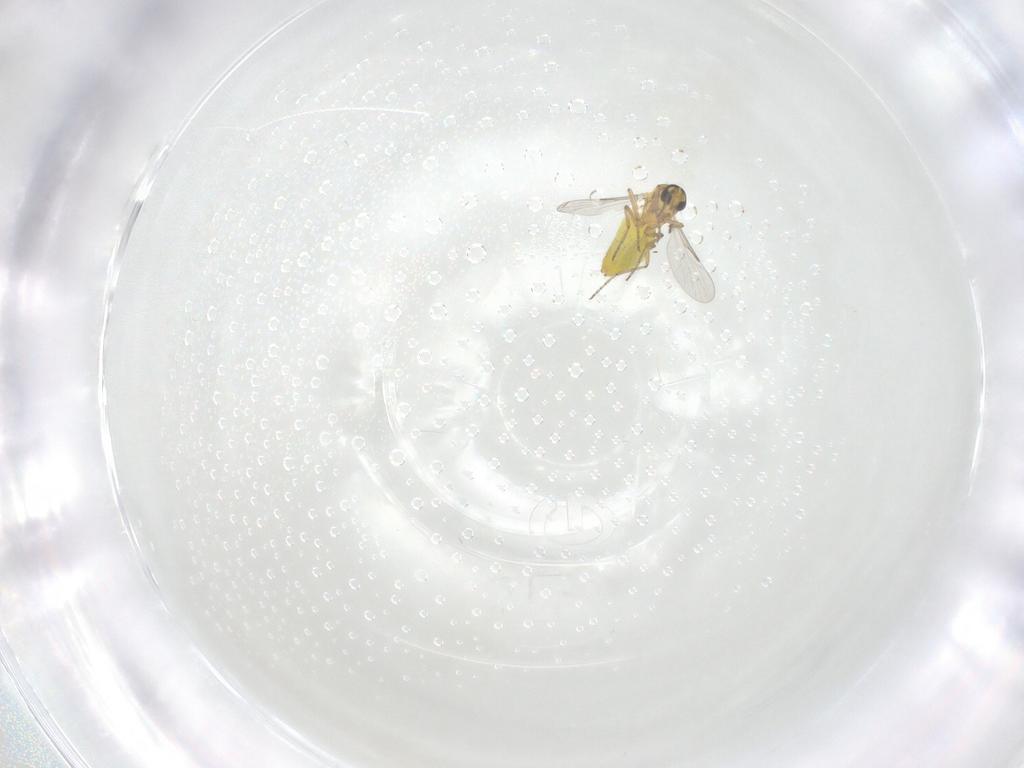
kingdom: Animalia
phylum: Arthropoda
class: Insecta
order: Diptera
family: Ceratopogonidae
